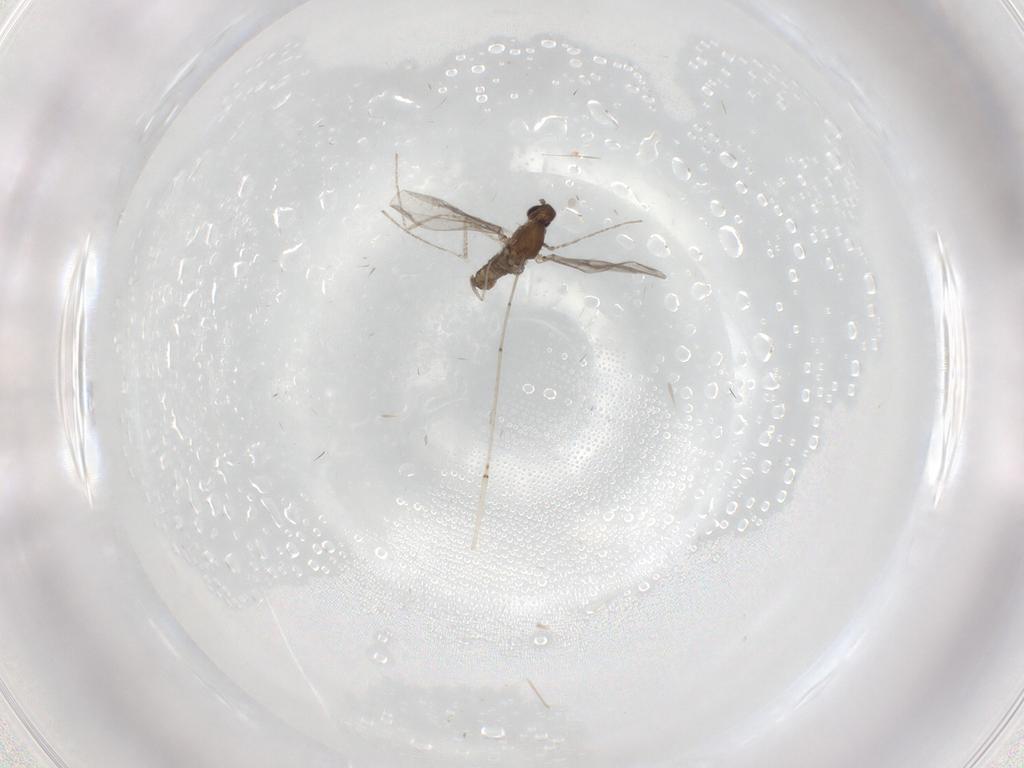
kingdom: Animalia
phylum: Arthropoda
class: Insecta
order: Diptera
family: Cecidomyiidae
